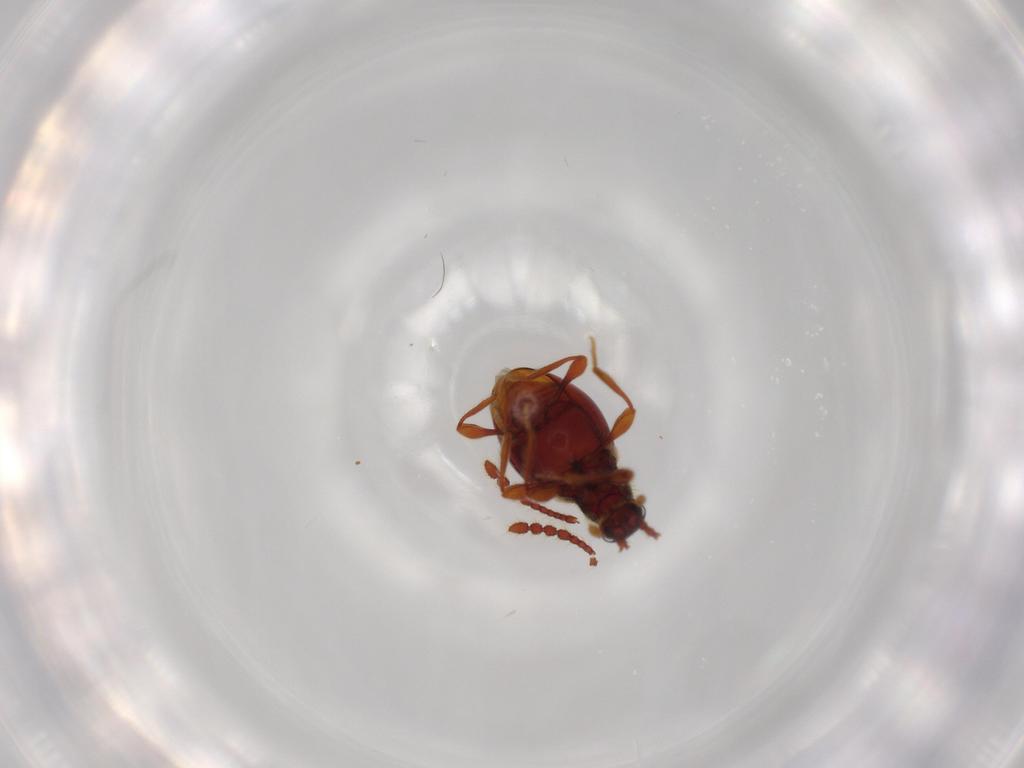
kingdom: Animalia
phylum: Arthropoda
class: Insecta
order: Coleoptera
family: Staphylinidae
